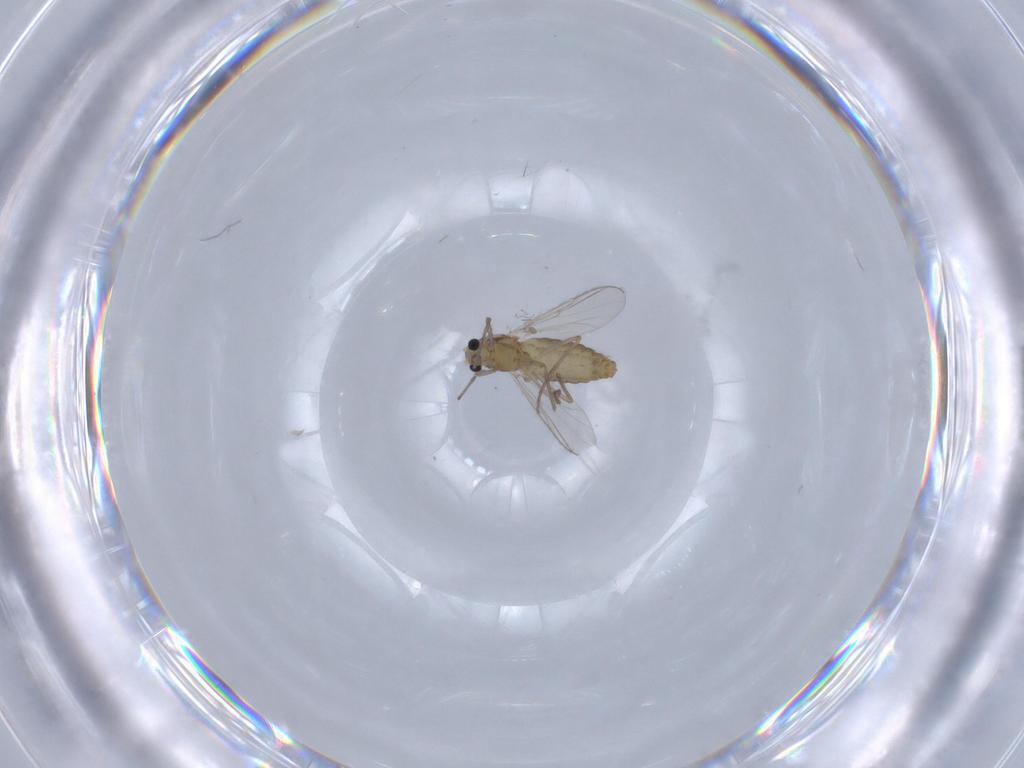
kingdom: Animalia
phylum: Arthropoda
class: Insecta
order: Diptera
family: Chironomidae
